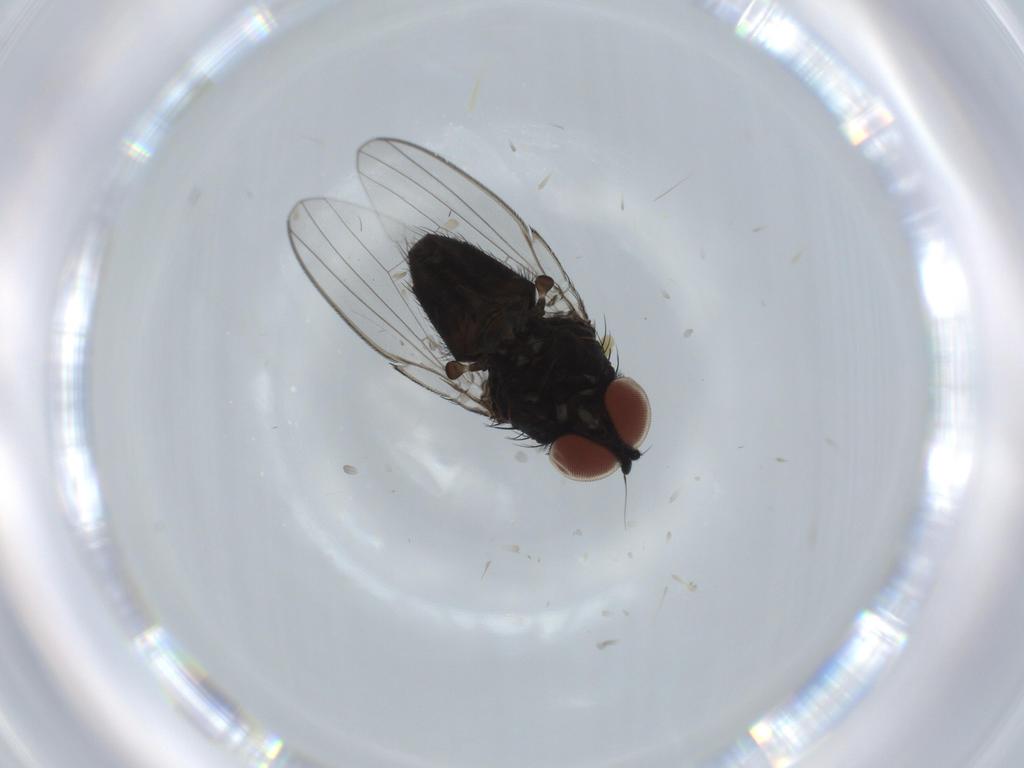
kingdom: Animalia
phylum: Arthropoda
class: Insecta
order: Diptera
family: Milichiidae
